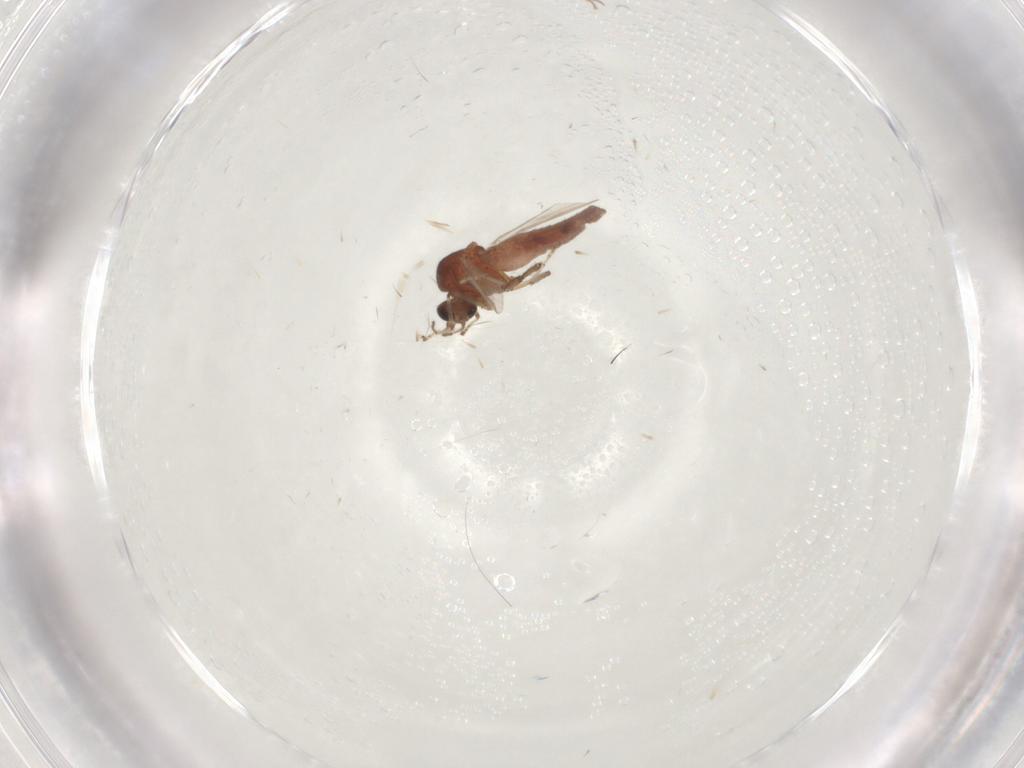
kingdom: Animalia
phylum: Arthropoda
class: Insecta
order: Diptera
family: Ceratopogonidae
